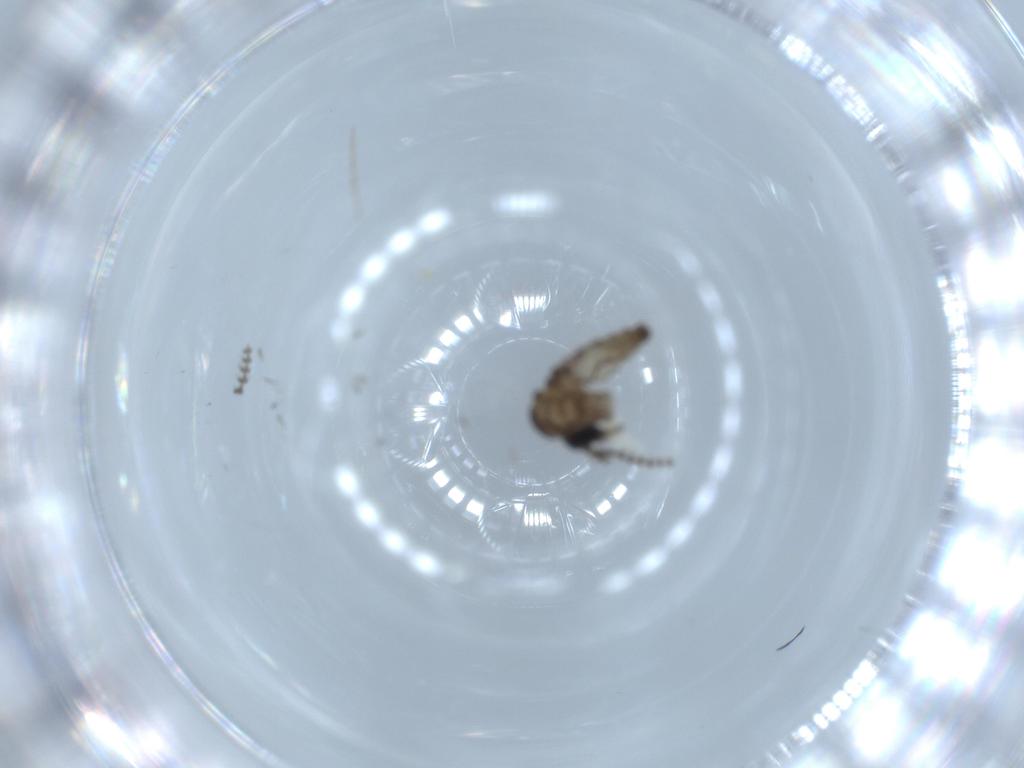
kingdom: Animalia
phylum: Arthropoda
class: Insecta
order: Diptera
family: Psychodidae
